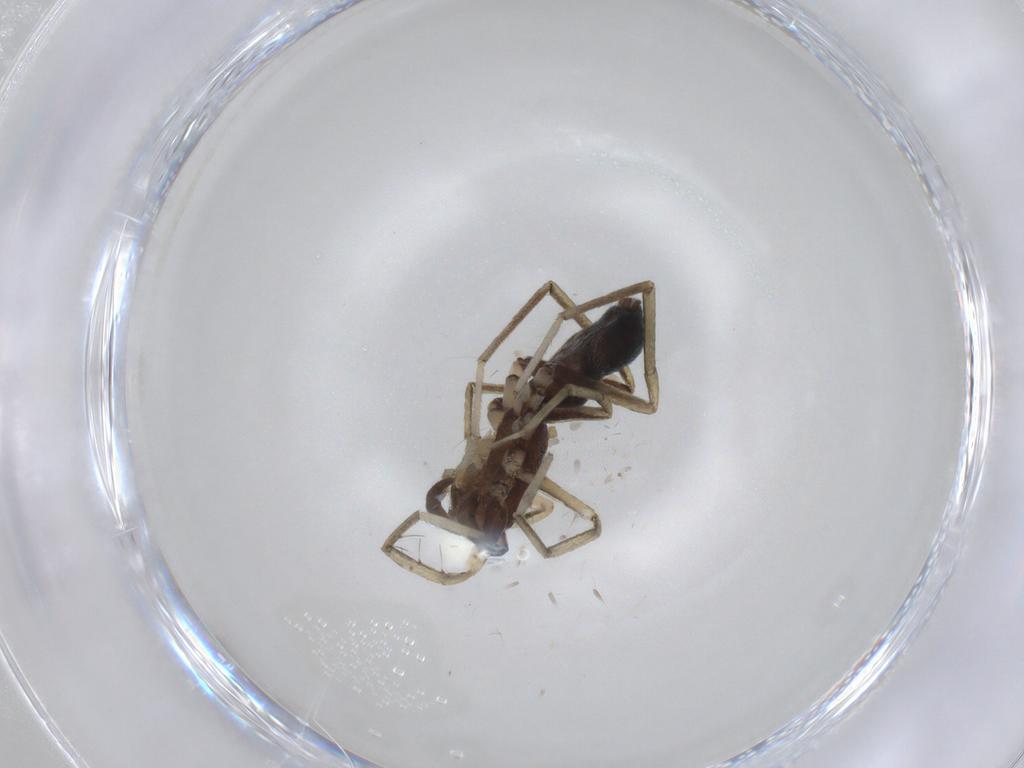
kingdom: Animalia
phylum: Arthropoda
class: Arachnida
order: Araneae
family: Gnaphosidae
